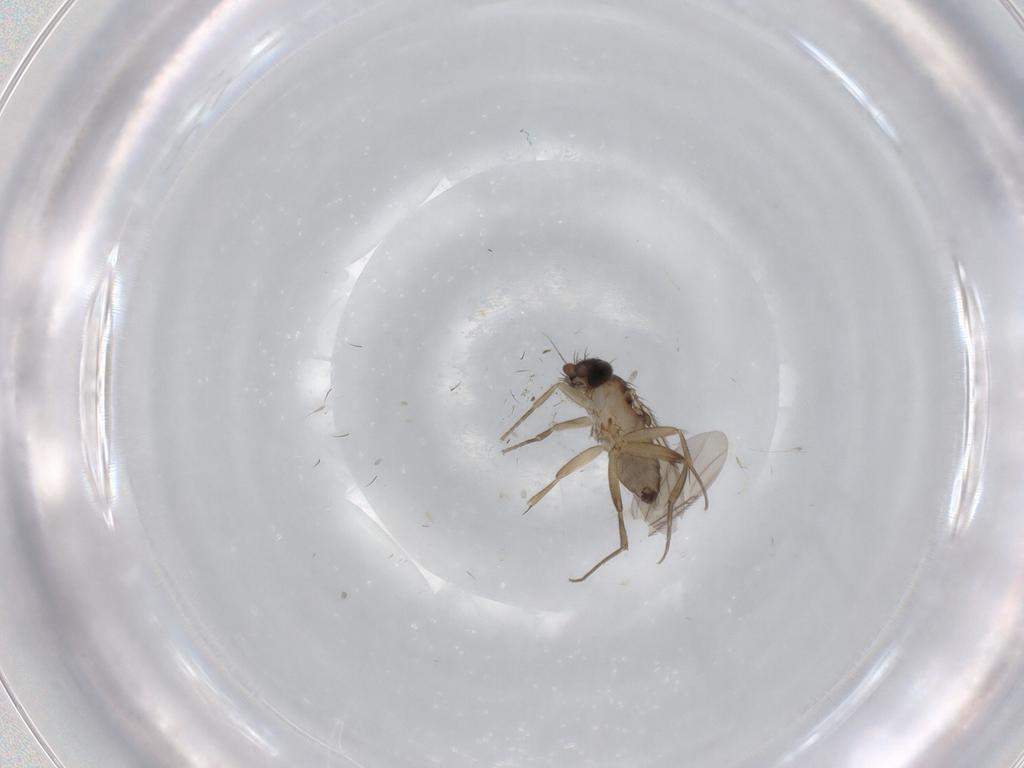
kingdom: Animalia
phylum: Arthropoda
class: Insecta
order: Diptera
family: Phoridae
